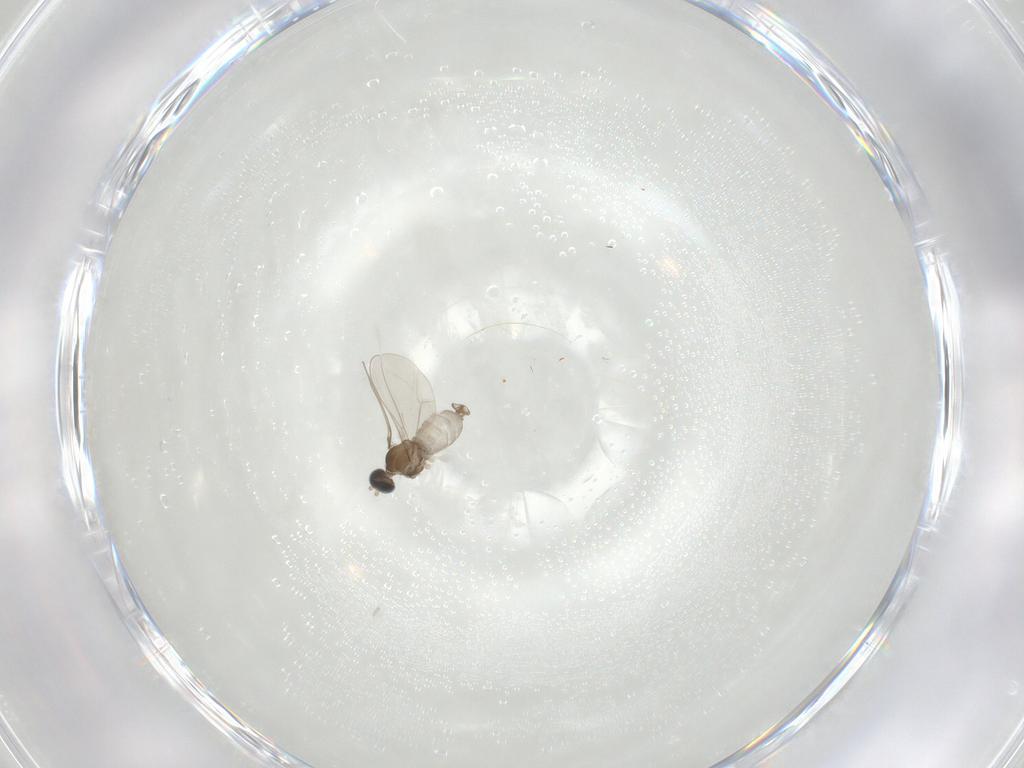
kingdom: Animalia
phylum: Arthropoda
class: Insecta
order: Diptera
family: Cecidomyiidae
